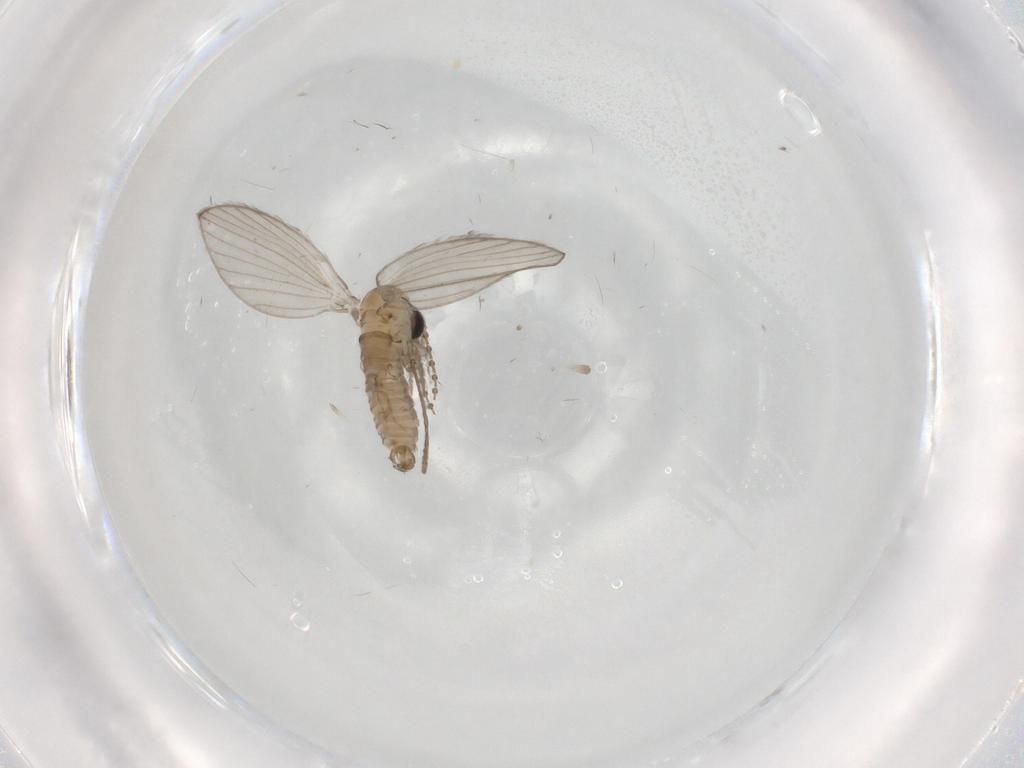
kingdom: Animalia
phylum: Arthropoda
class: Insecta
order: Diptera
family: Psychodidae
